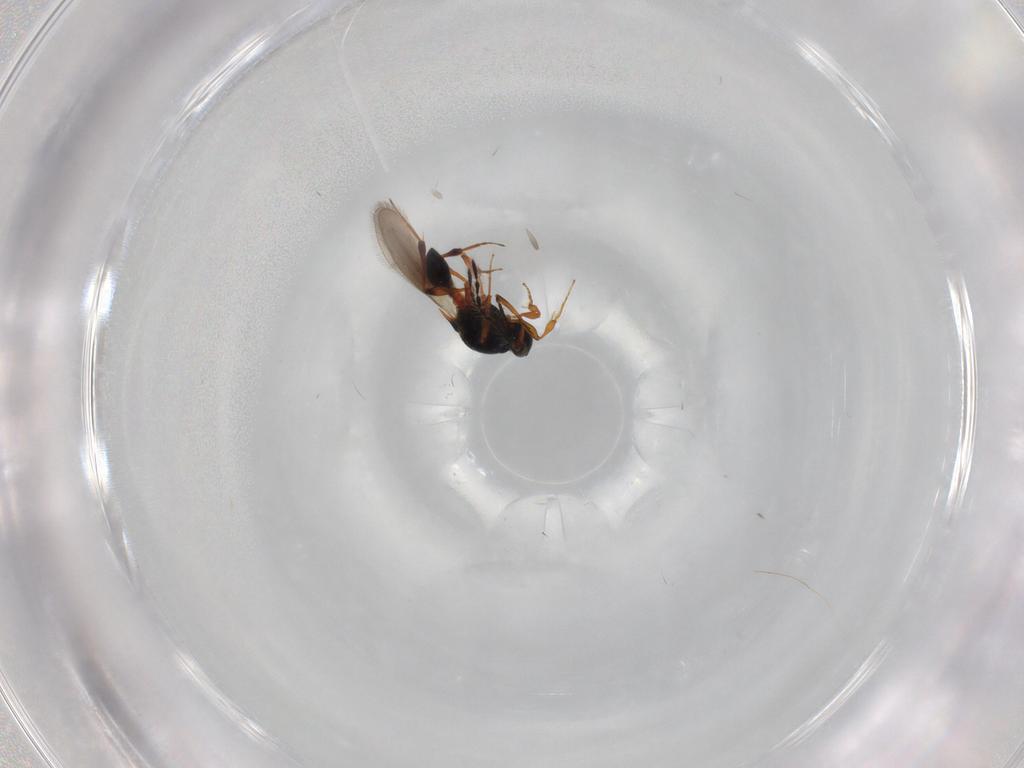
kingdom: Animalia
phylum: Arthropoda
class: Insecta
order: Hymenoptera
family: Platygastridae
